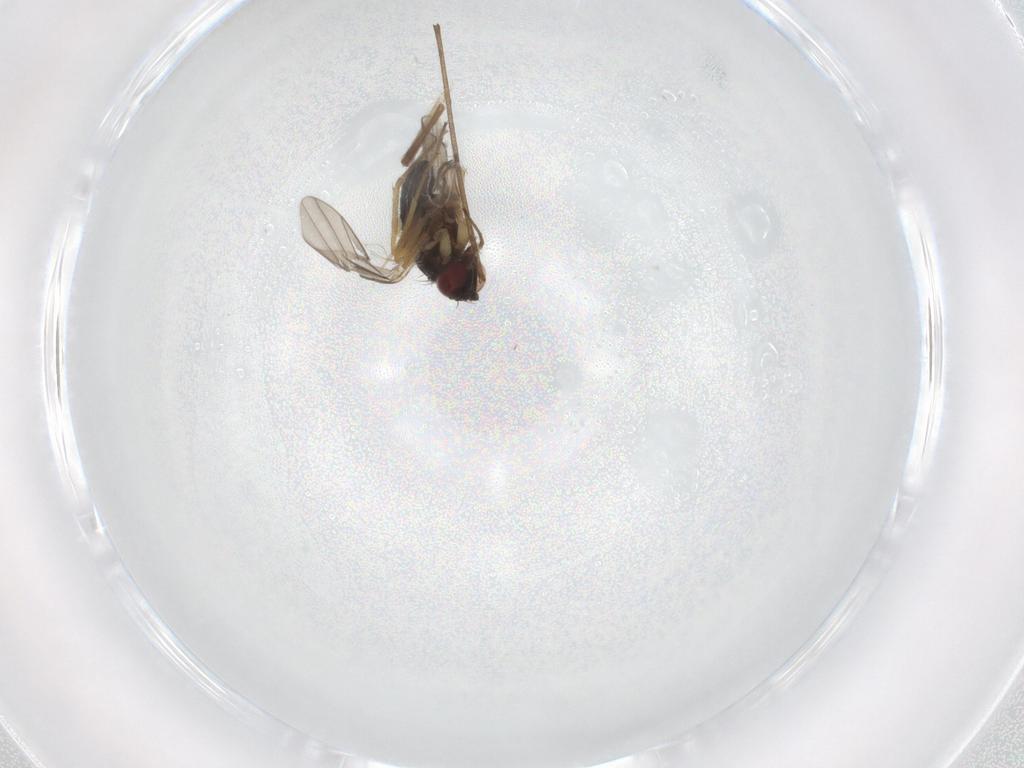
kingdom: Animalia
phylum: Arthropoda
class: Insecta
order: Diptera
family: Dolichopodidae
